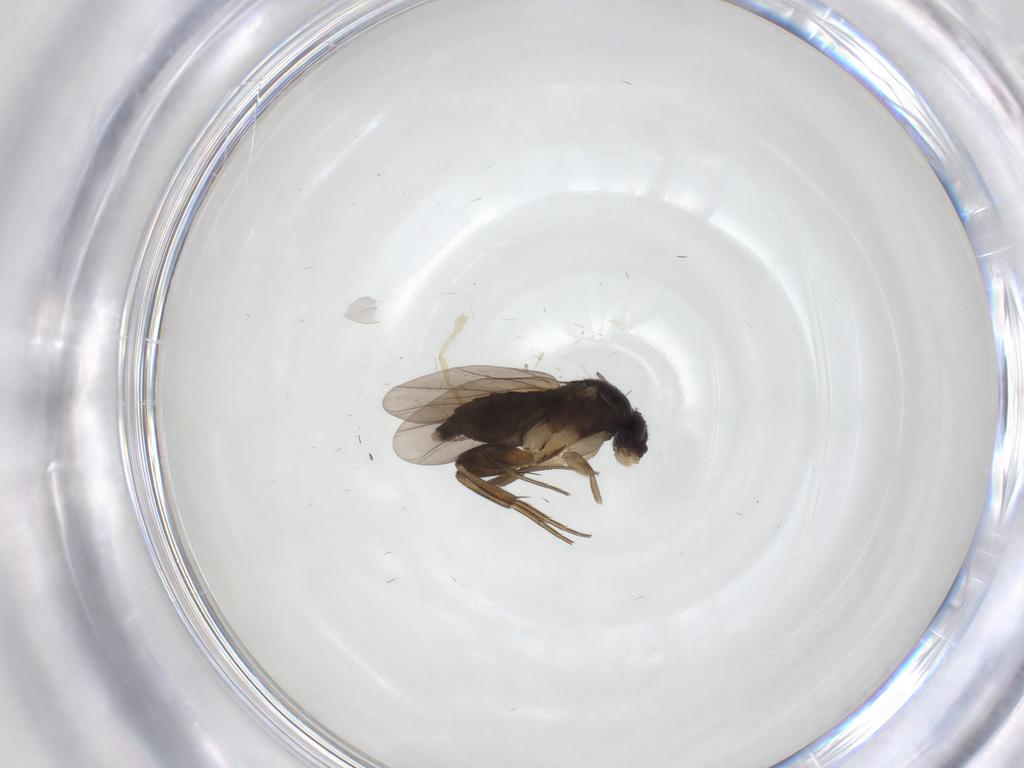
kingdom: Animalia
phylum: Arthropoda
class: Insecta
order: Diptera
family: Phoridae
